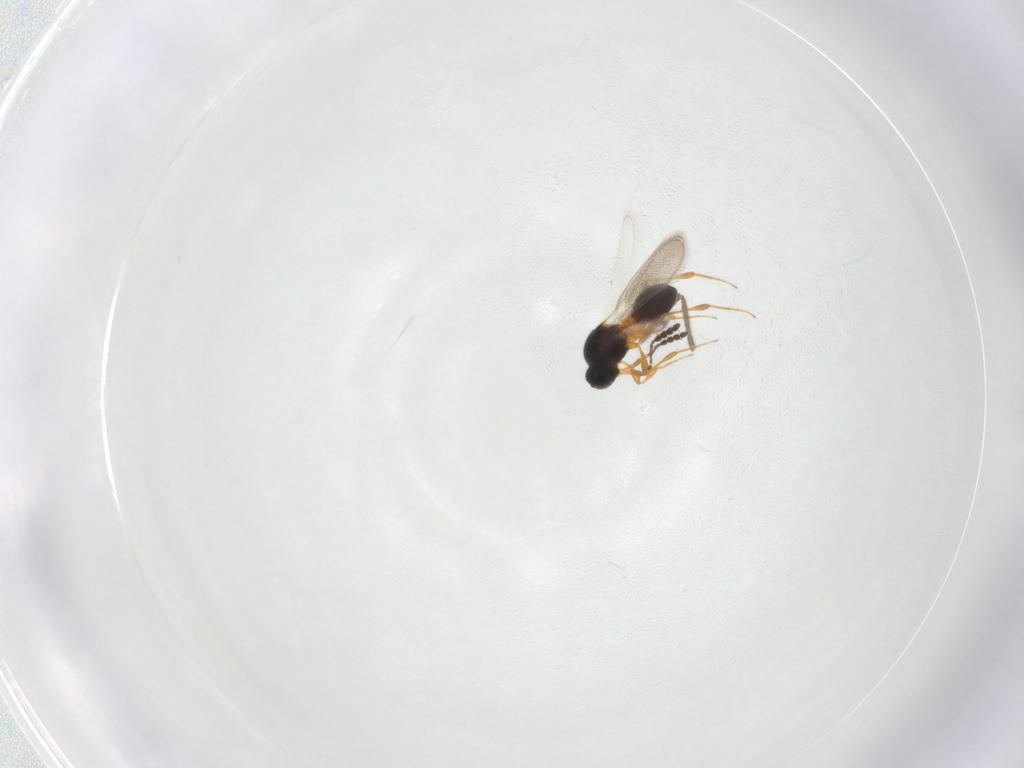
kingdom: Animalia
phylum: Arthropoda
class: Insecta
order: Hymenoptera
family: Platygastridae
